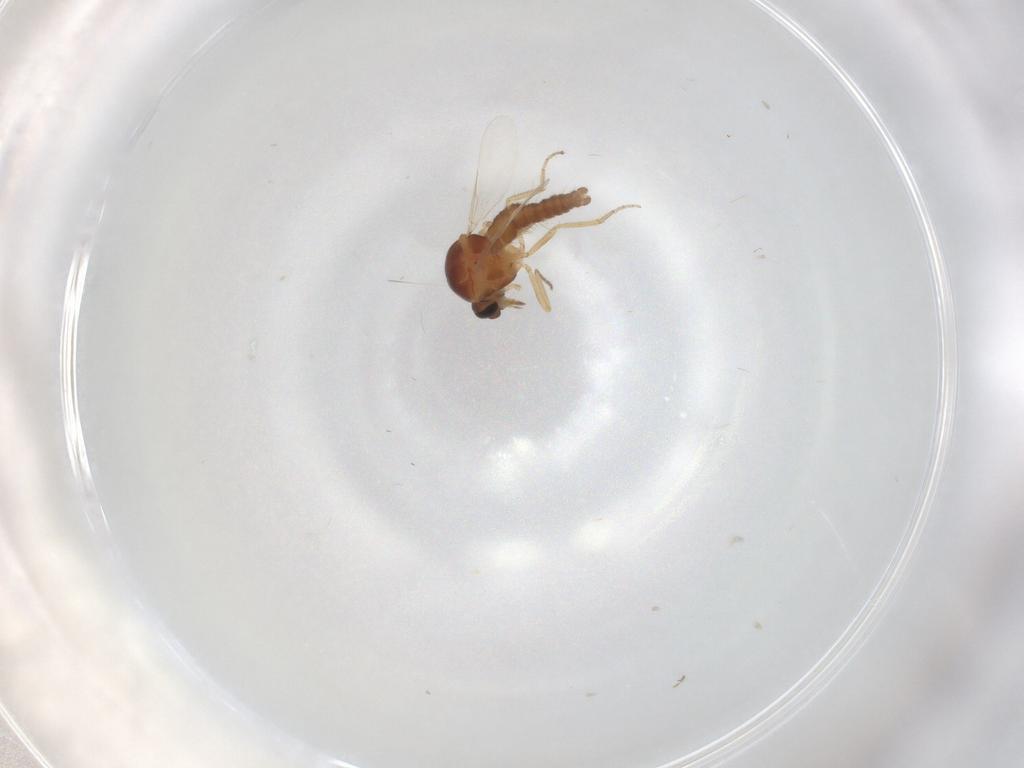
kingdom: Animalia
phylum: Arthropoda
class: Insecta
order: Diptera
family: Ceratopogonidae
